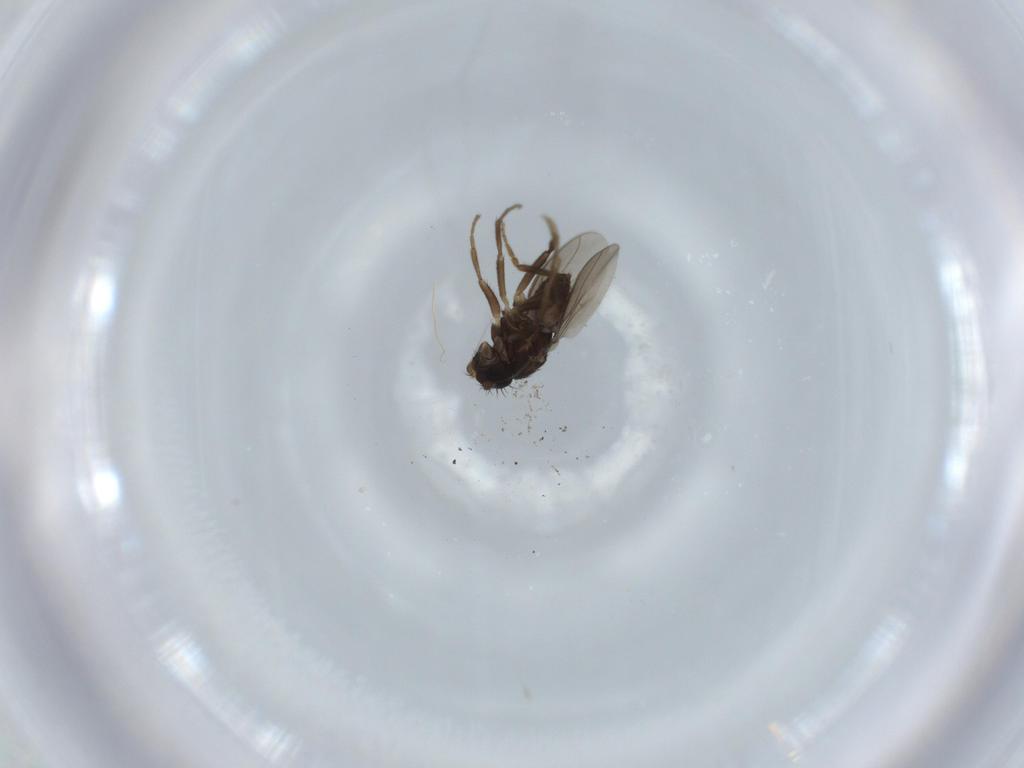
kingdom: Animalia
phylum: Arthropoda
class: Insecta
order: Diptera
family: Sphaeroceridae
